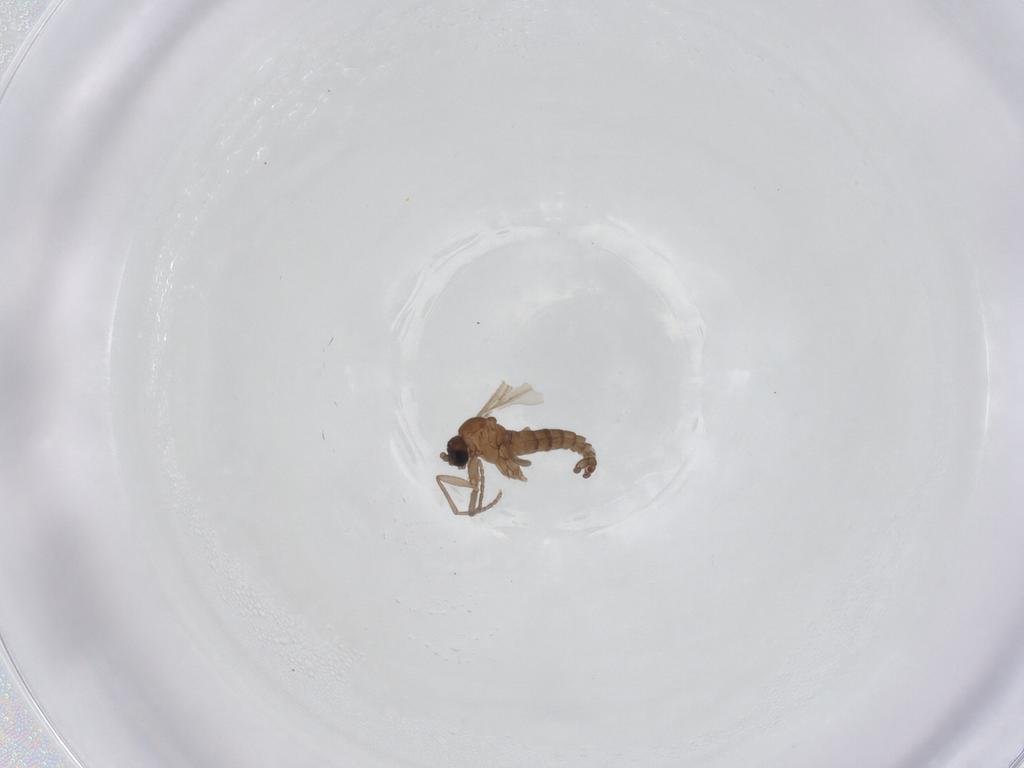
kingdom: Animalia
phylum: Arthropoda
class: Insecta
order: Diptera
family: Sciaridae
